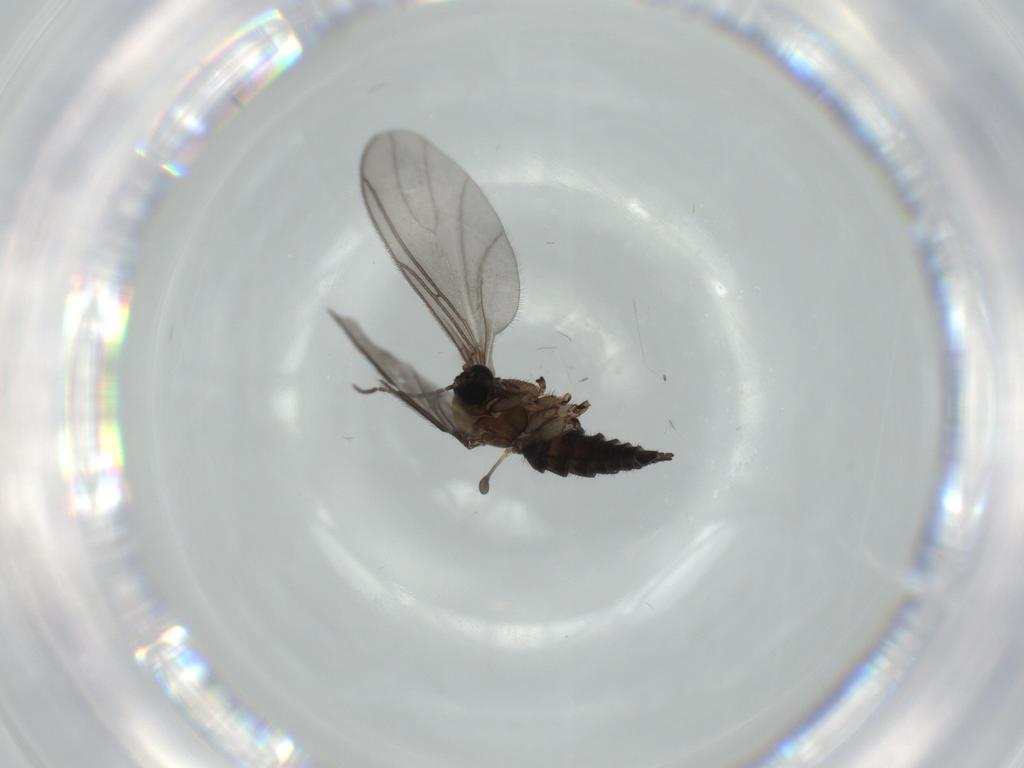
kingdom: Animalia
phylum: Arthropoda
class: Insecta
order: Diptera
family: Sciaridae
